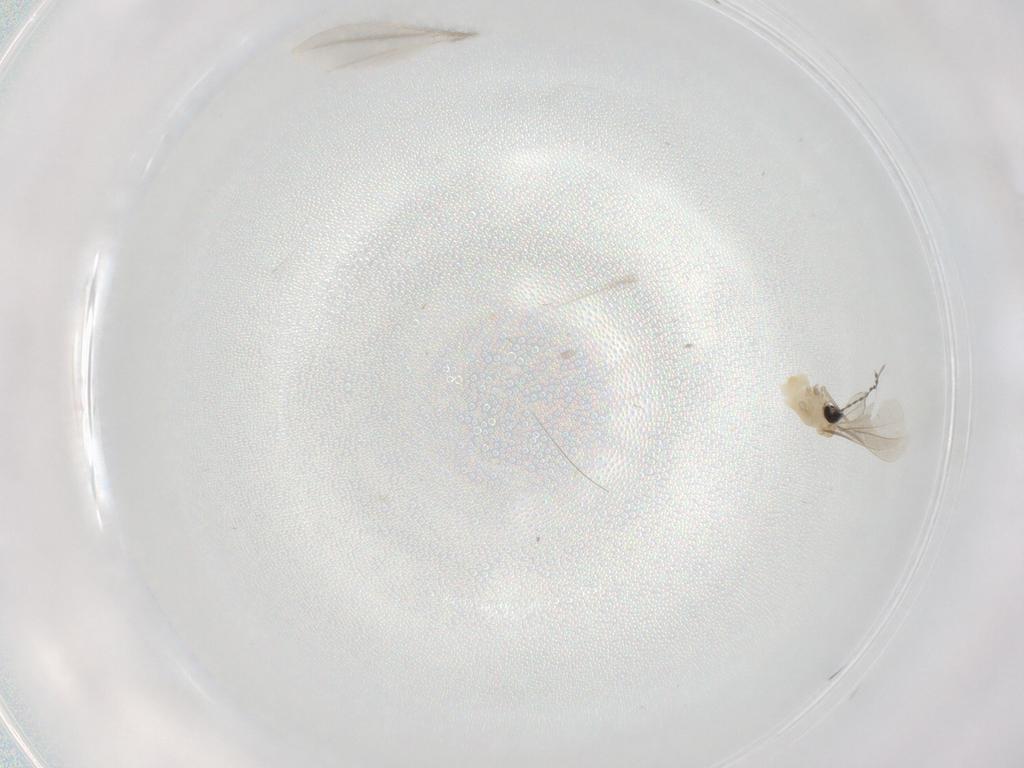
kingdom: Animalia
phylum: Arthropoda
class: Insecta
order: Diptera
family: Cecidomyiidae
